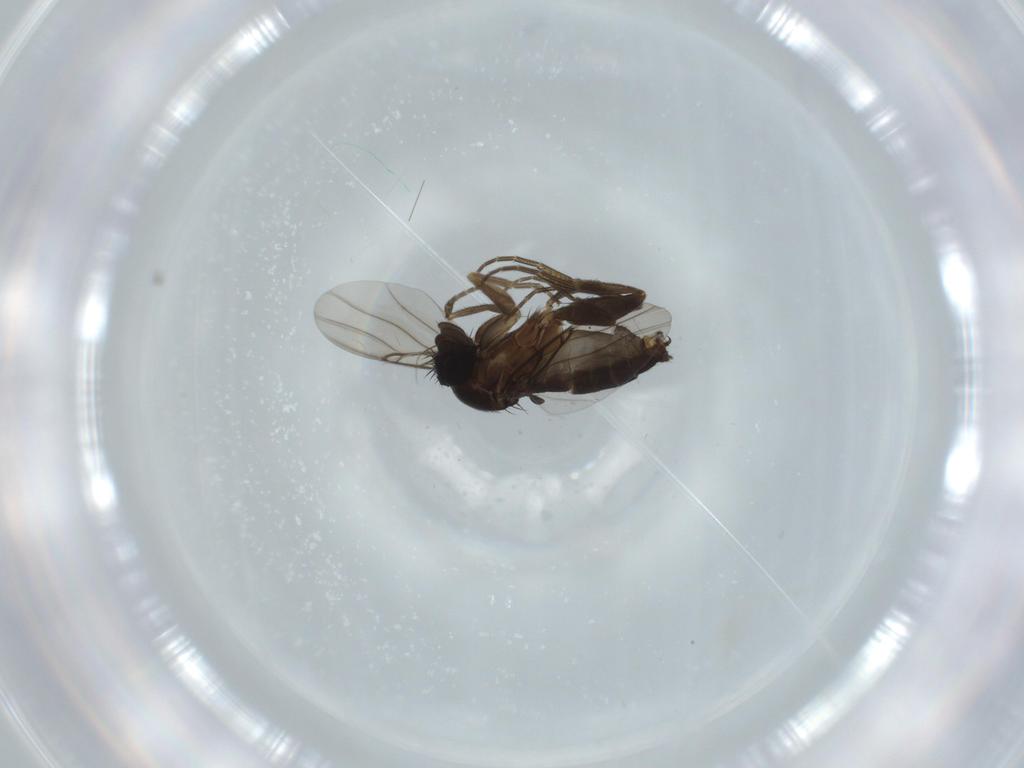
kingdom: Animalia
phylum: Arthropoda
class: Insecta
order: Diptera
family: Phoridae
